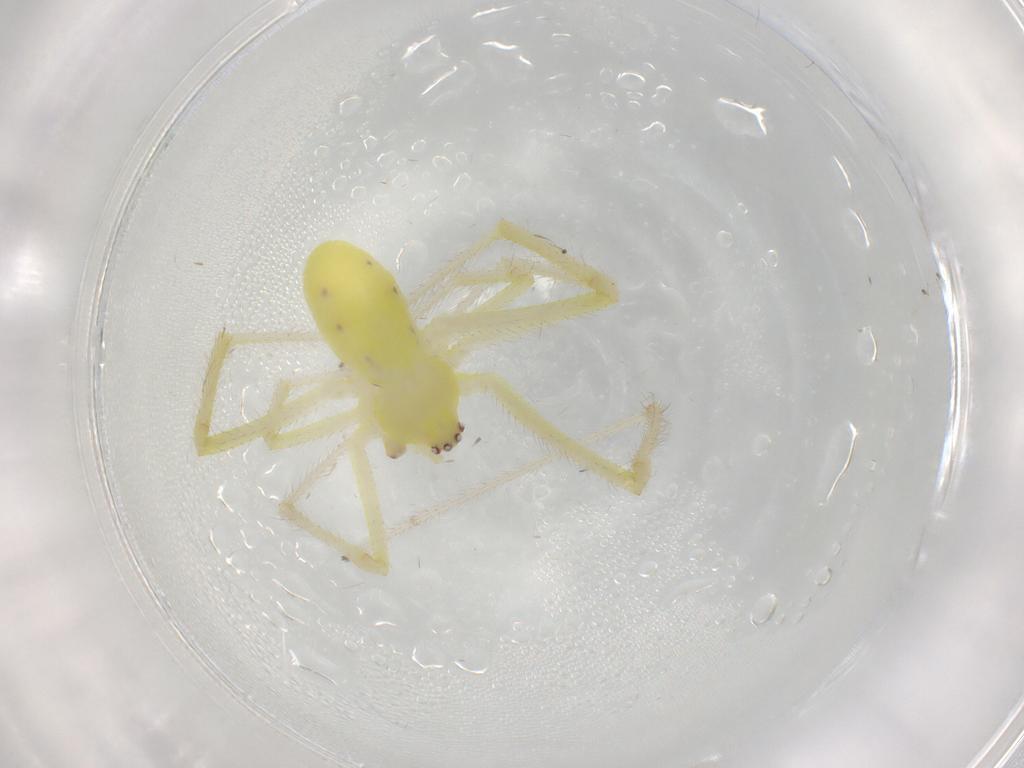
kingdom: Animalia
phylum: Arthropoda
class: Arachnida
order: Araneae
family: Theridiidae
